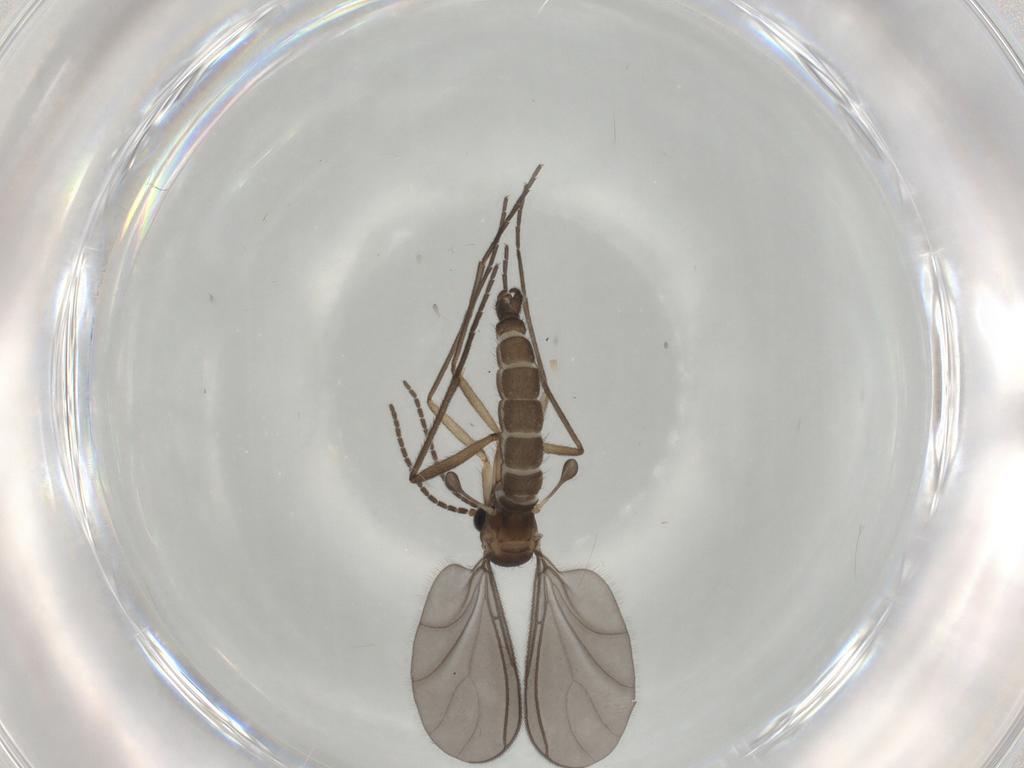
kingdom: Animalia
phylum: Arthropoda
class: Insecta
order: Diptera
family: Sciaridae
